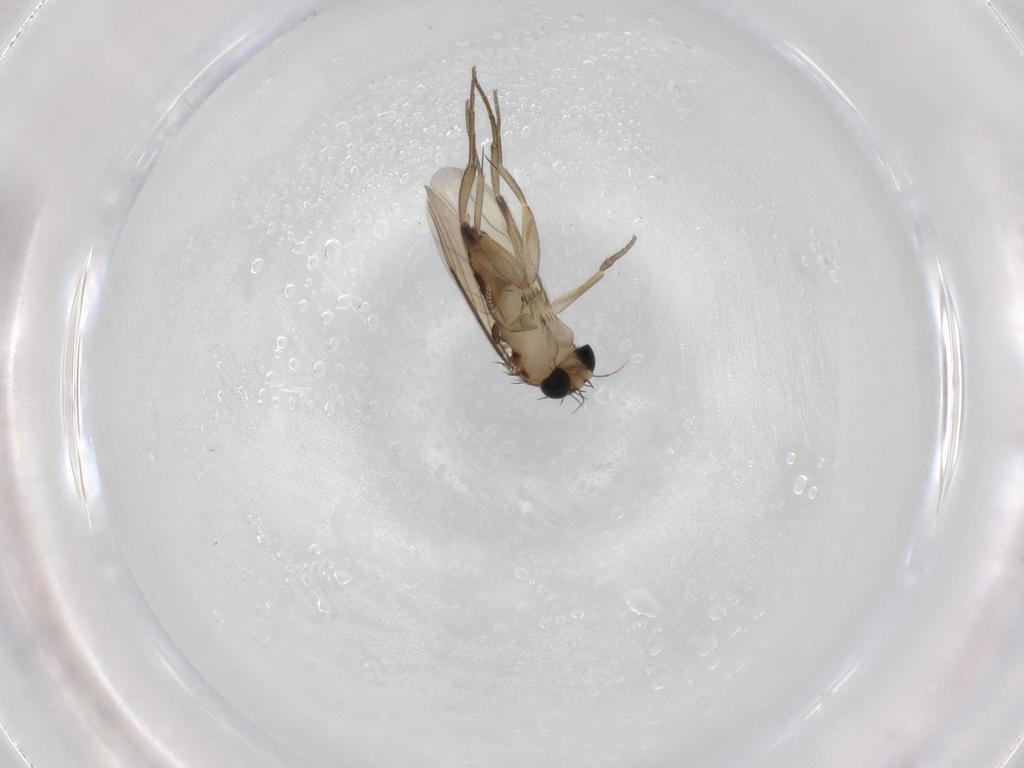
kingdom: Animalia
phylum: Arthropoda
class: Insecta
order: Diptera
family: Phoridae
